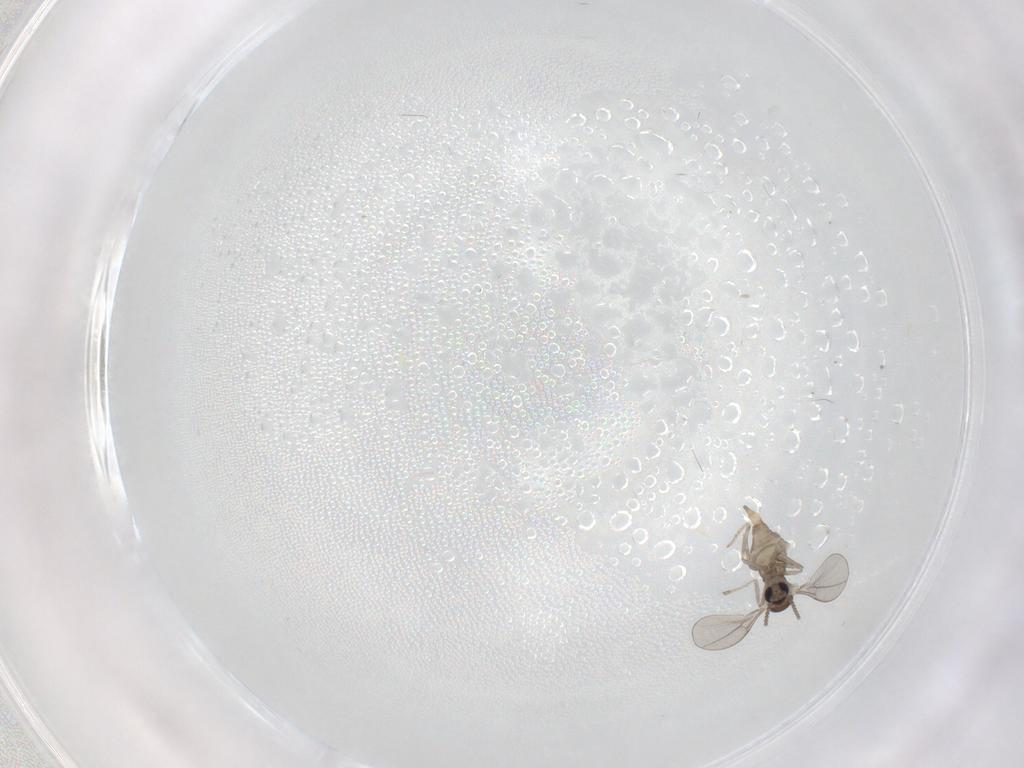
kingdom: Animalia
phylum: Arthropoda
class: Insecta
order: Diptera
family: Cecidomyiidae
